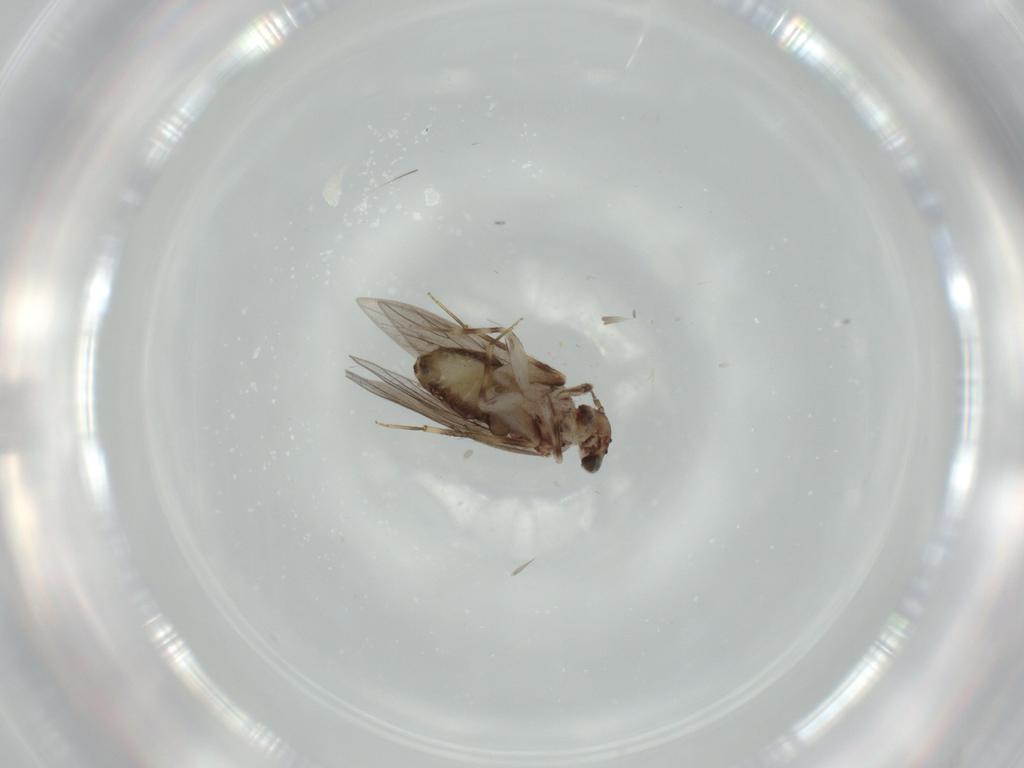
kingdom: Animalia
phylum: Arthropoda
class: Insecta
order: Psocodea
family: Lepidopsocidae
